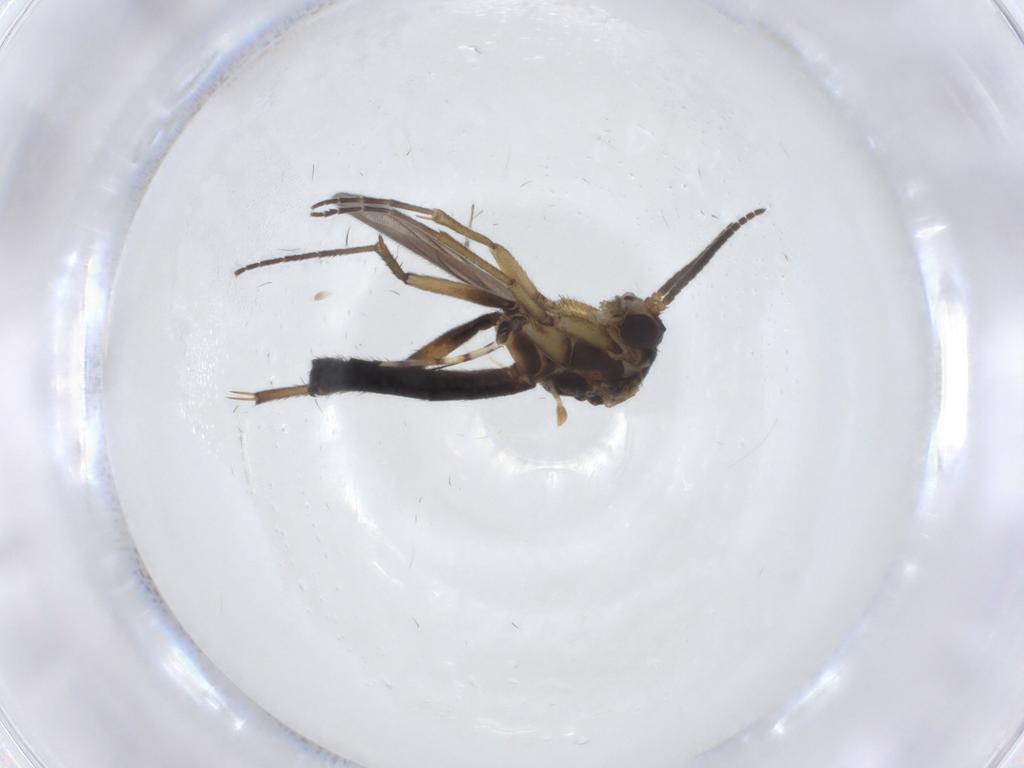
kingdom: Animalia
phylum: Arthropoda
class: Insecta
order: Diptera
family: Mycetophilidae
